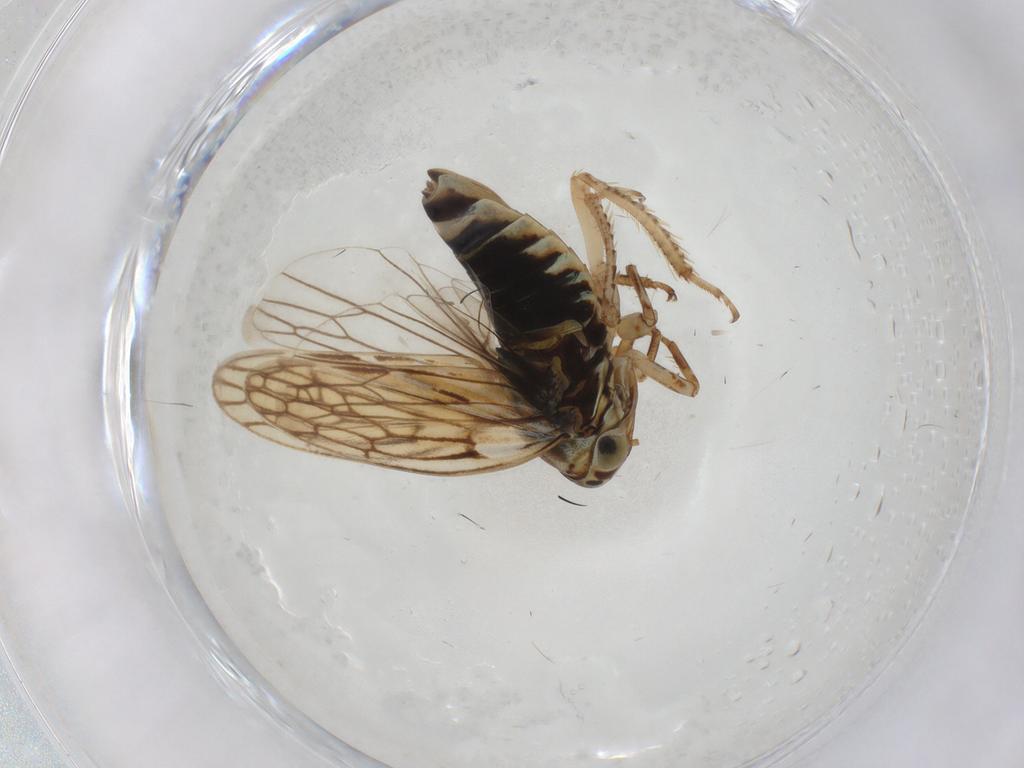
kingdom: Animalia
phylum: Arthropoda
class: Insecta
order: Hemiptera
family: Cicadellidae
